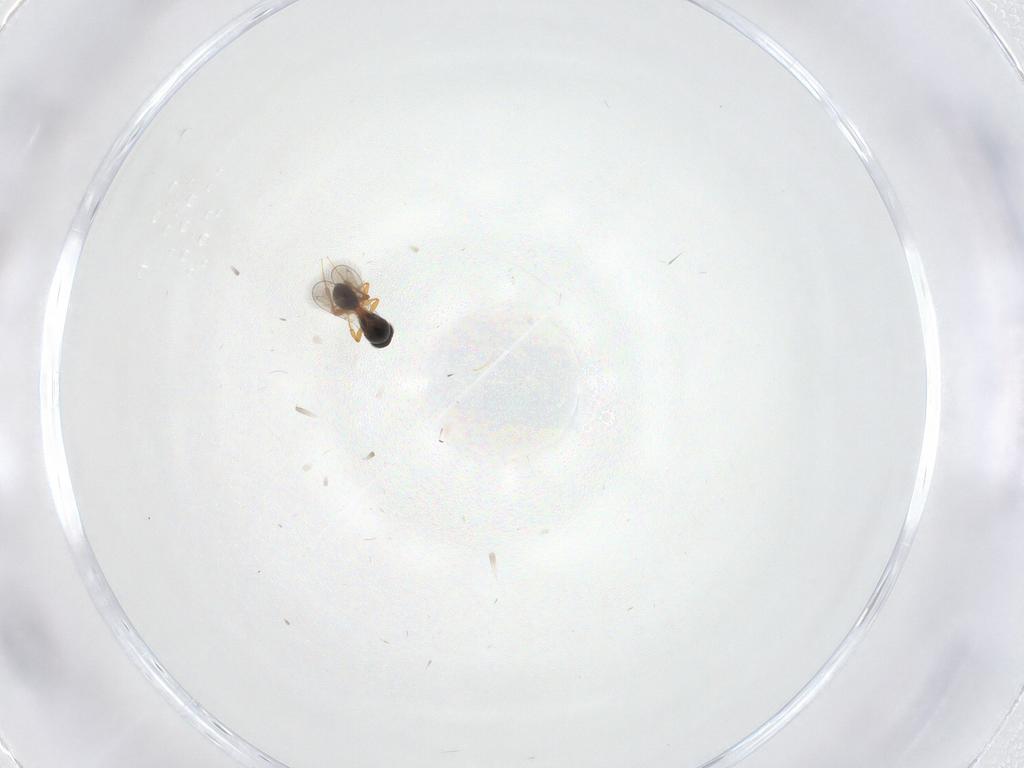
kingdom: Animalia
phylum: Arthropoda
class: Insecta
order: Hymenoptera
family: Platygastridae
